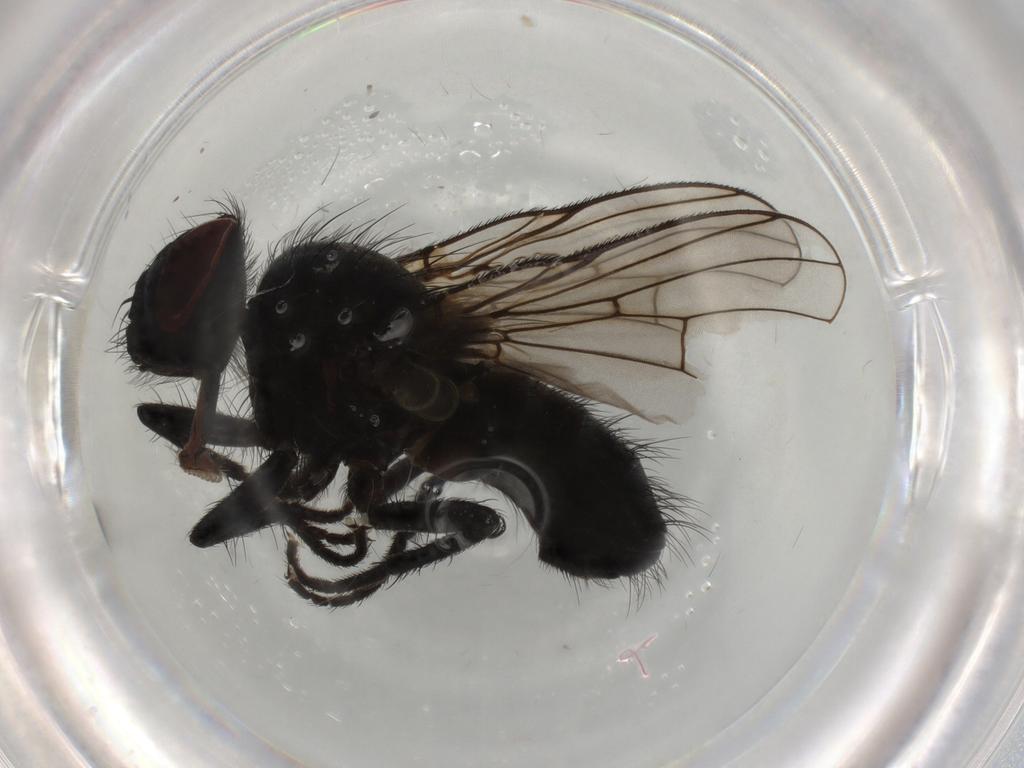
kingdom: Animalia
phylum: Arthropoda
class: Insecta
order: Diptera
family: Muscidae
